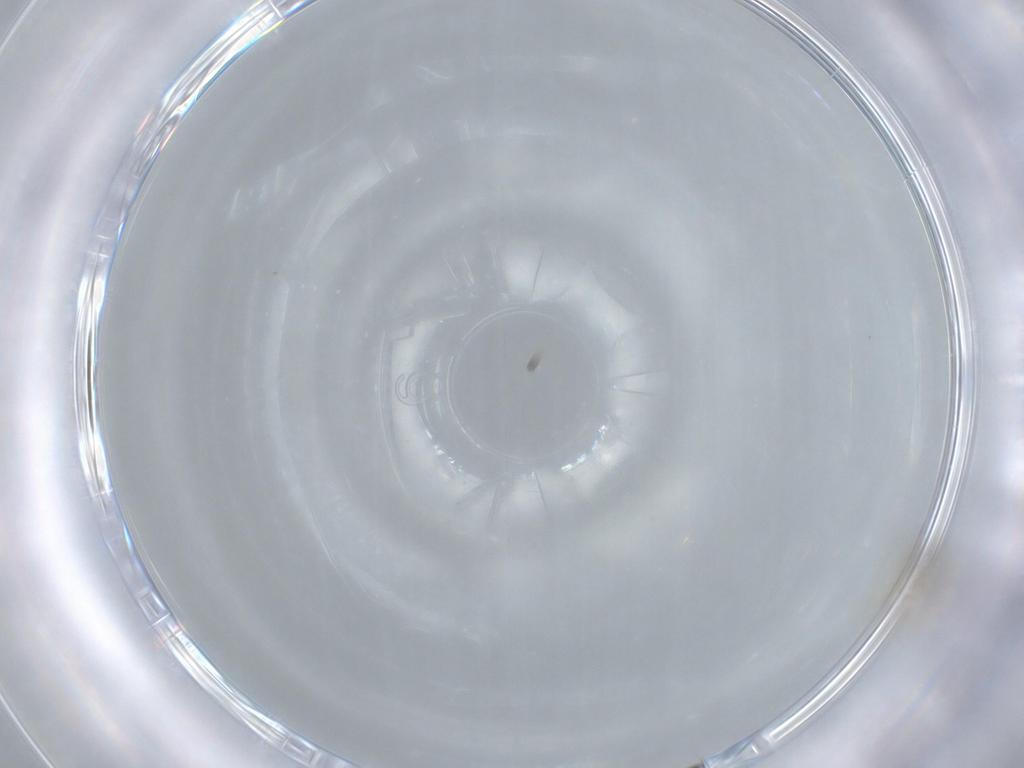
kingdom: Animalia
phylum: Arthropoda
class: Insecta
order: Diptera
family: Odiniidae
